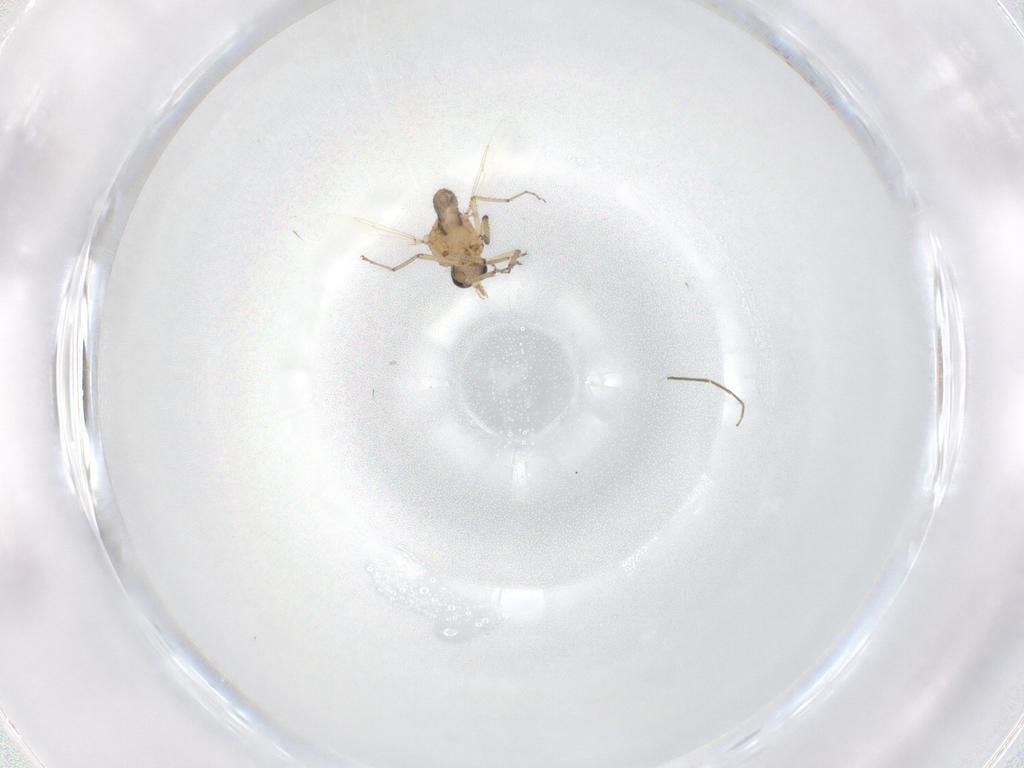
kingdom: Animalia
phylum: Arthropoda
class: Insecta
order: Diptera
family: Ceratopogonidae
